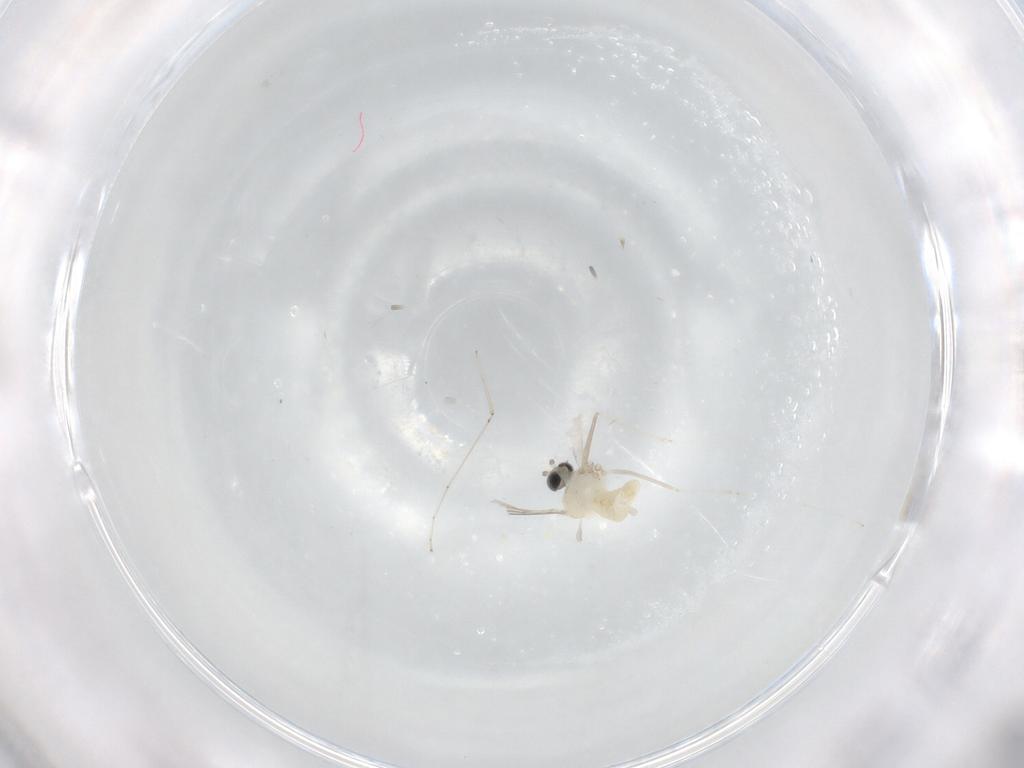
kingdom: Animalia
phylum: Arthropoda
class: Insecta
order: Diptera
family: Cecidomyiidae
